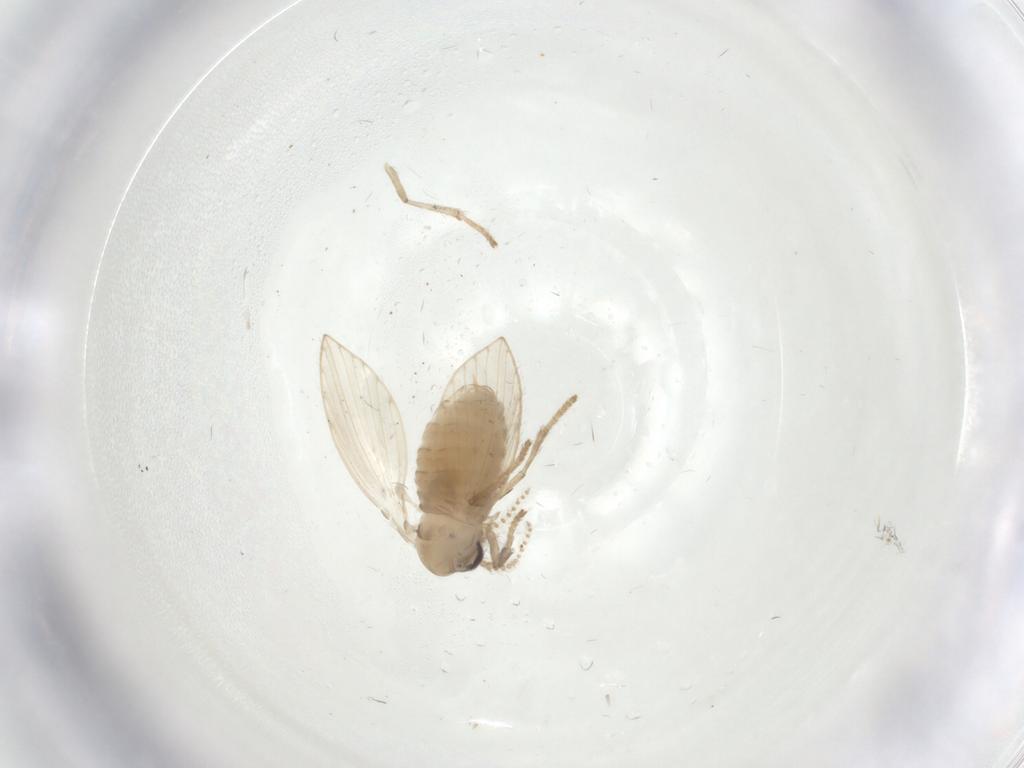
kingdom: Animalia
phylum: Arthropoda
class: Insecta
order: Diptera
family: Psychodidae
